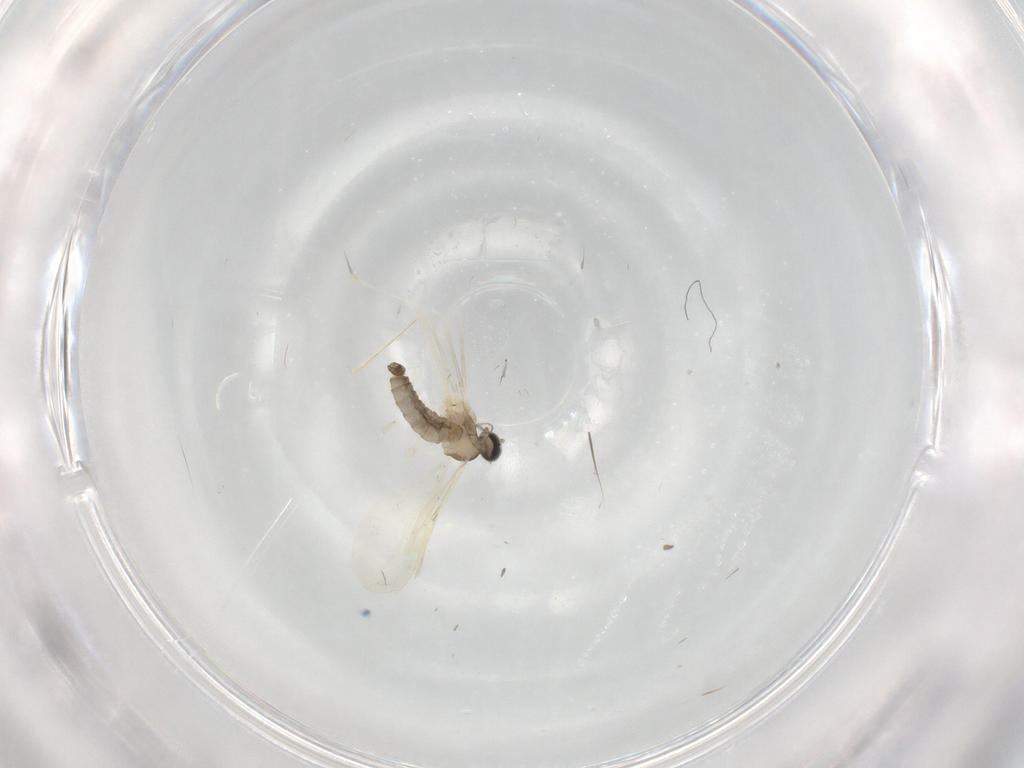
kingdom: Animalia
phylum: Arthropoda
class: Insecta
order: Diptera
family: Cecidomyiidae
